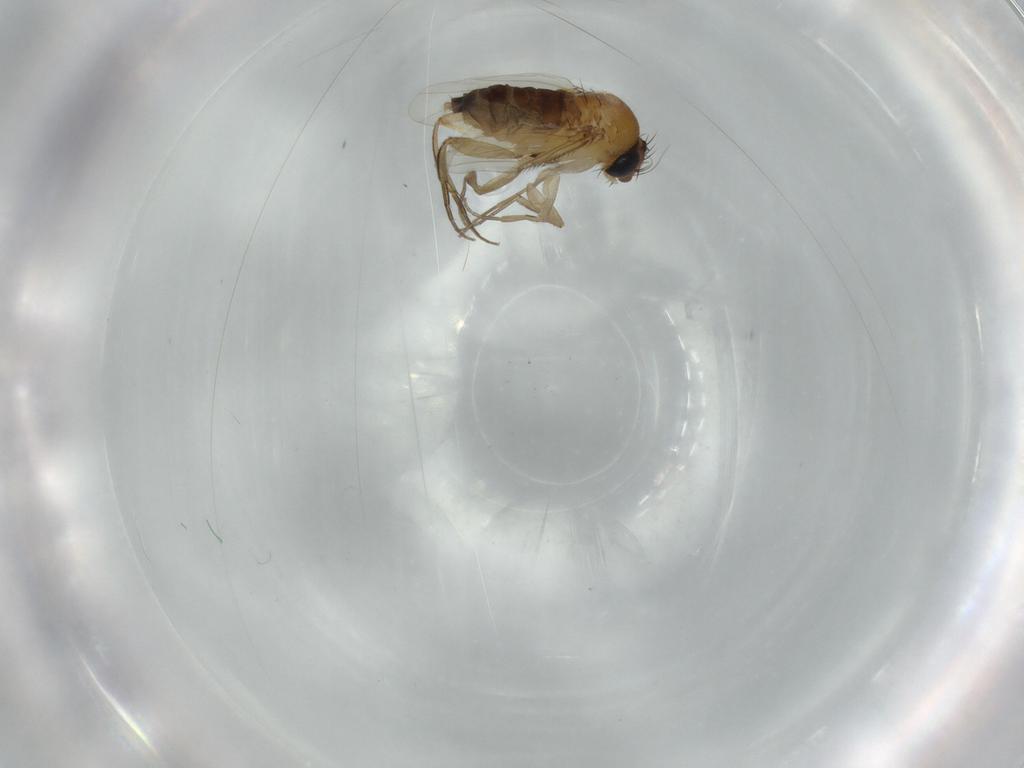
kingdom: Animalia
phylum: Arthropoda
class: Insecta
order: Diptera
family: Phoridae
